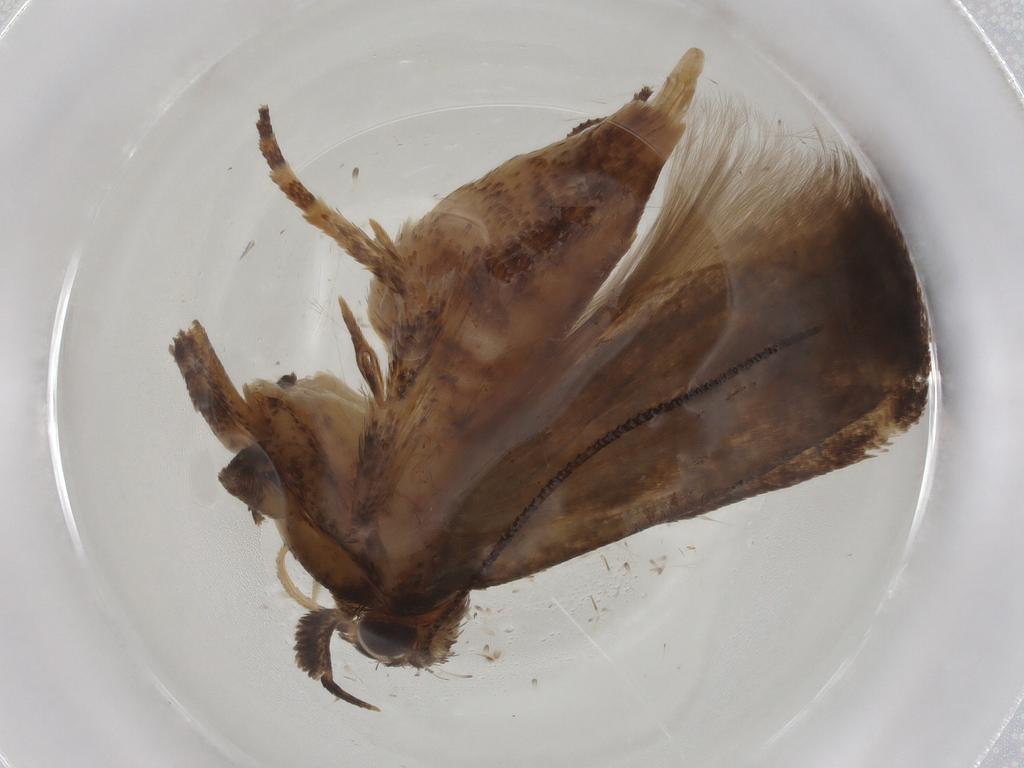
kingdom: Animalia
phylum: Arthropoda
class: Insecta
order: Lepidoptera
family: Gelechiidae
